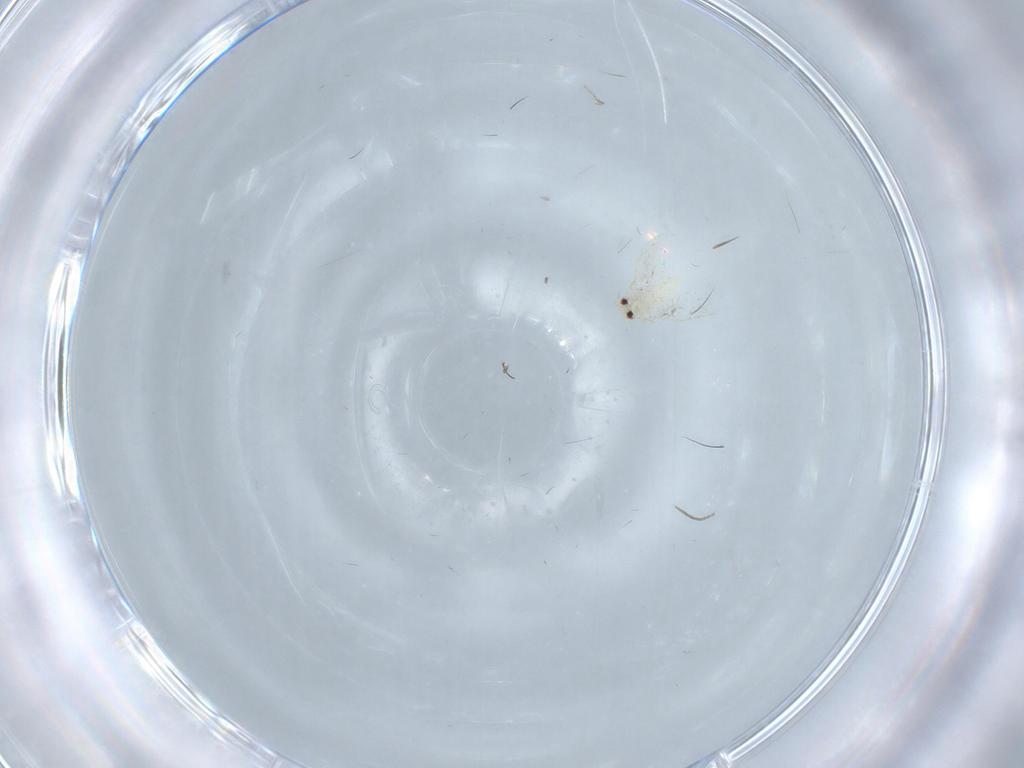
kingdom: Animalia
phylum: Arthropoda
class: Insecta
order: Hemiptera
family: Aleyrodidae
